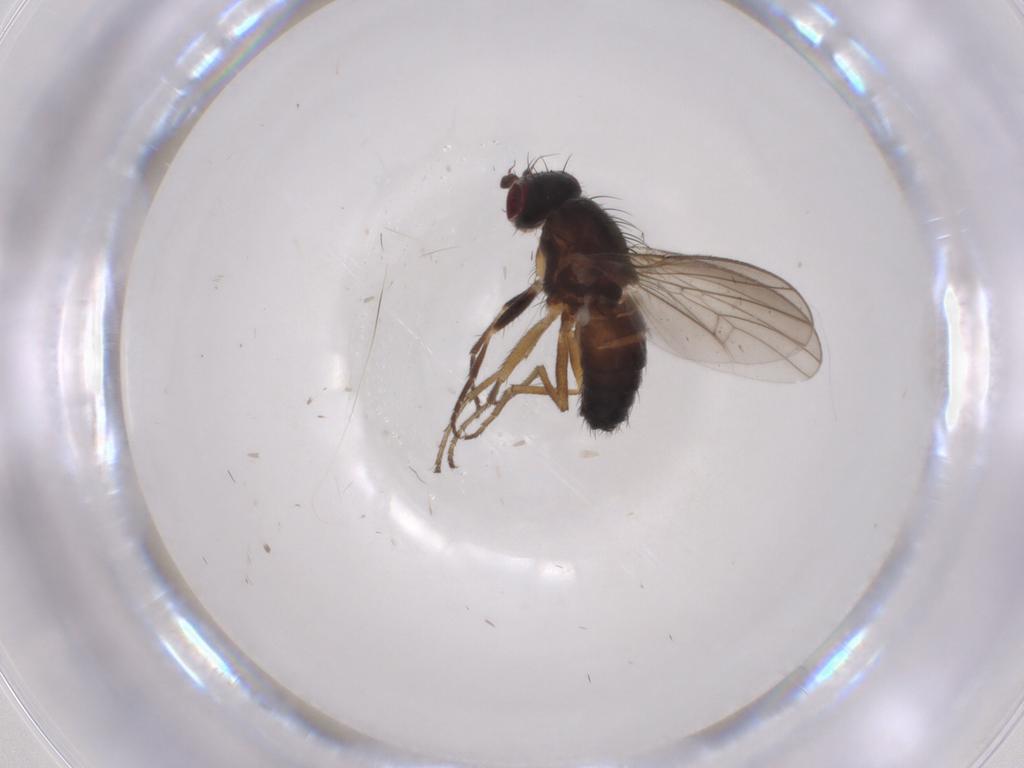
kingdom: Animalia
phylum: Arthropoda
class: Insecta
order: Diptera
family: Heleomyzidae
